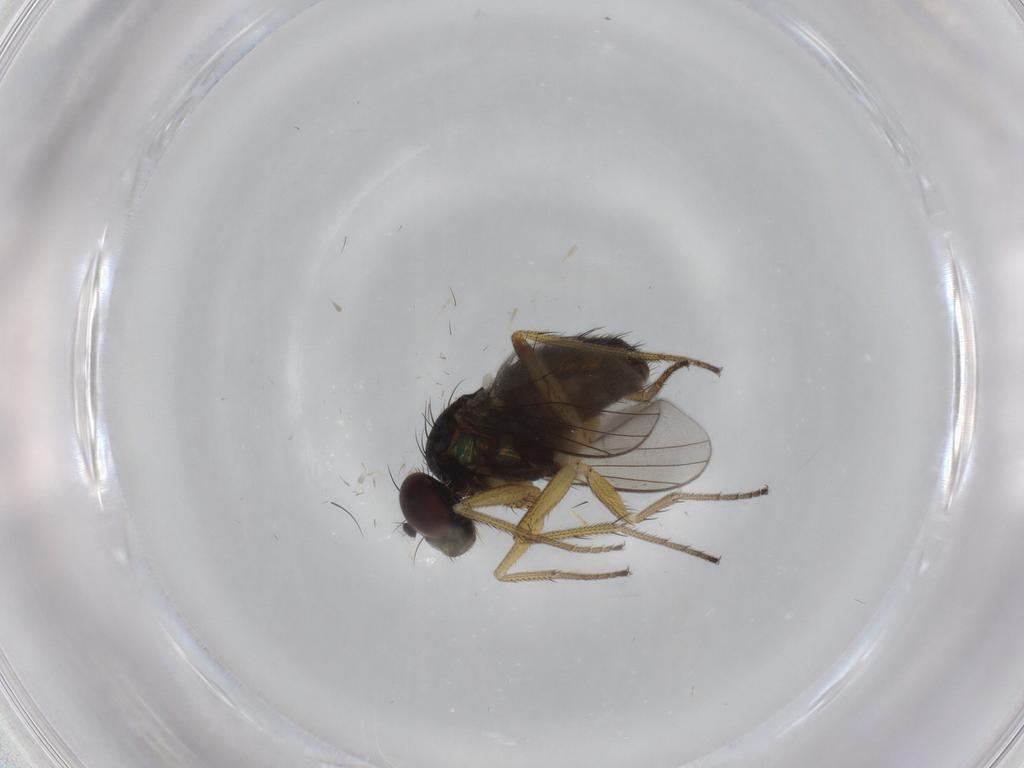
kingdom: Animalia
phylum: Arthropoda
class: Insecta
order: Diptera
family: Dolichopodidae
